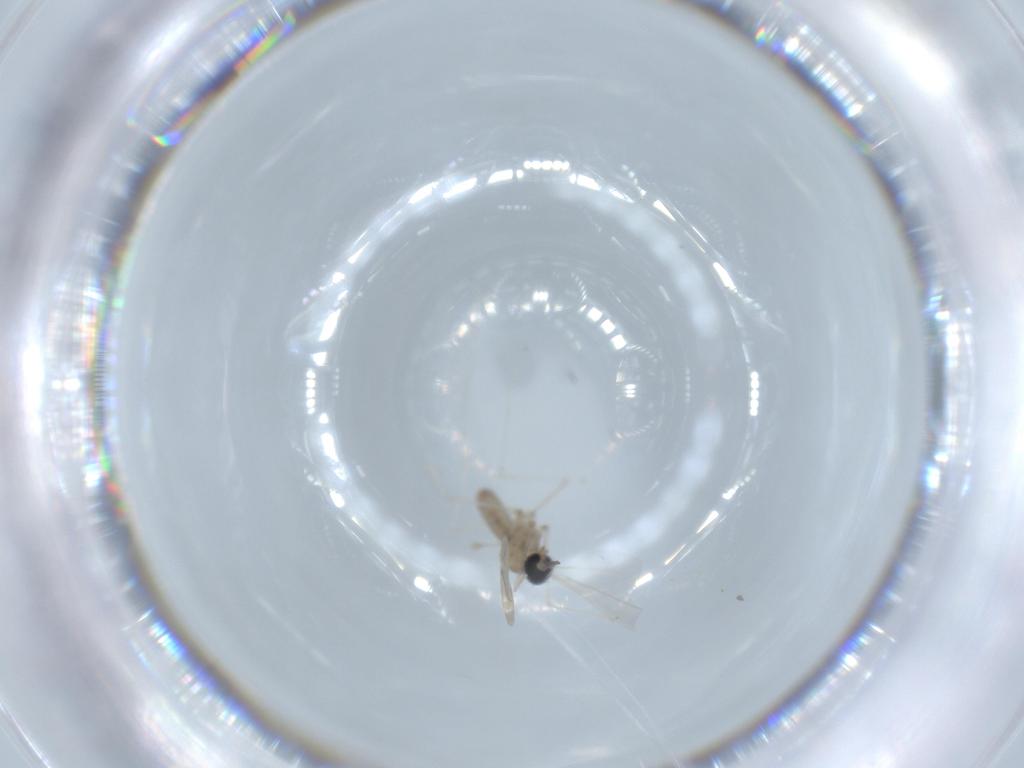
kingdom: Animalia
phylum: Arthropoda
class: Insecta
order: Diptera
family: Cecidomyiidae
